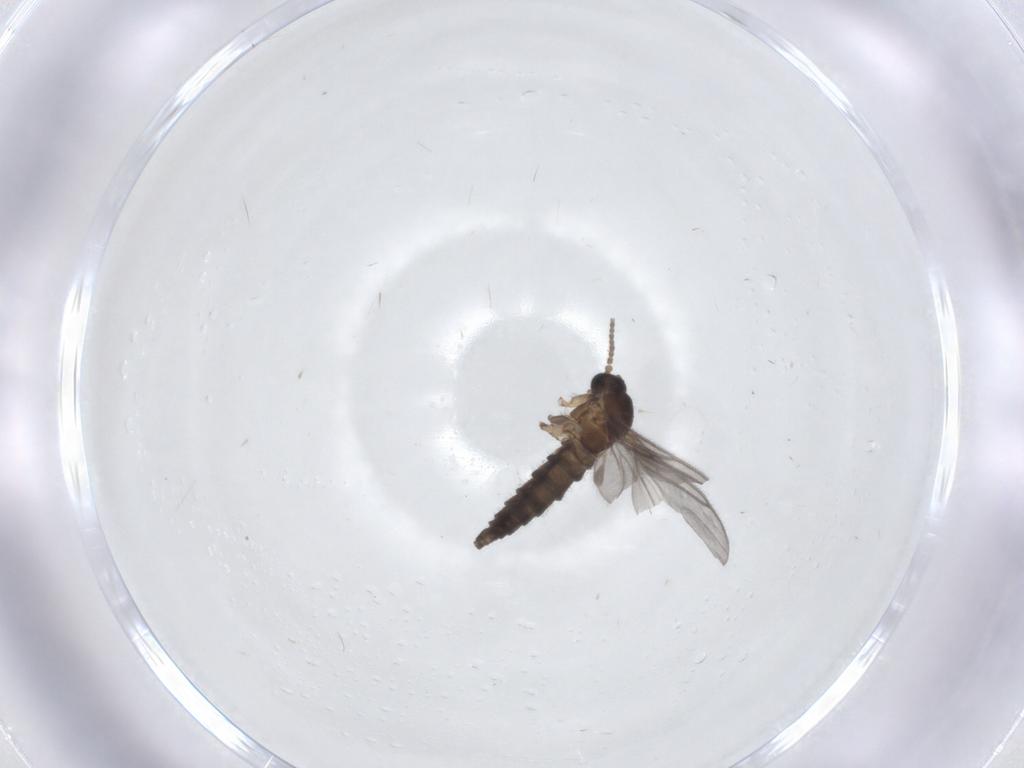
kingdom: Animalia
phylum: Arthropoda
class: Insecta
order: Diptera
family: Sciaridae
